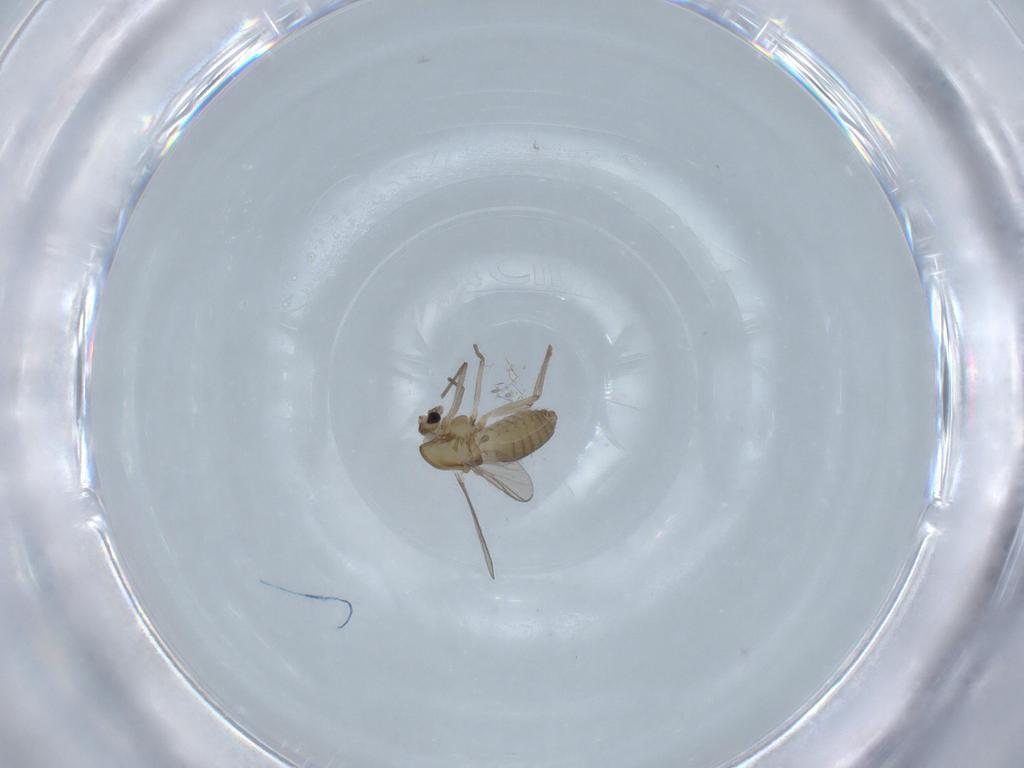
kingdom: Animalia
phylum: Arthropoda
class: Insecta
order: Diptera
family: Chironomidae
